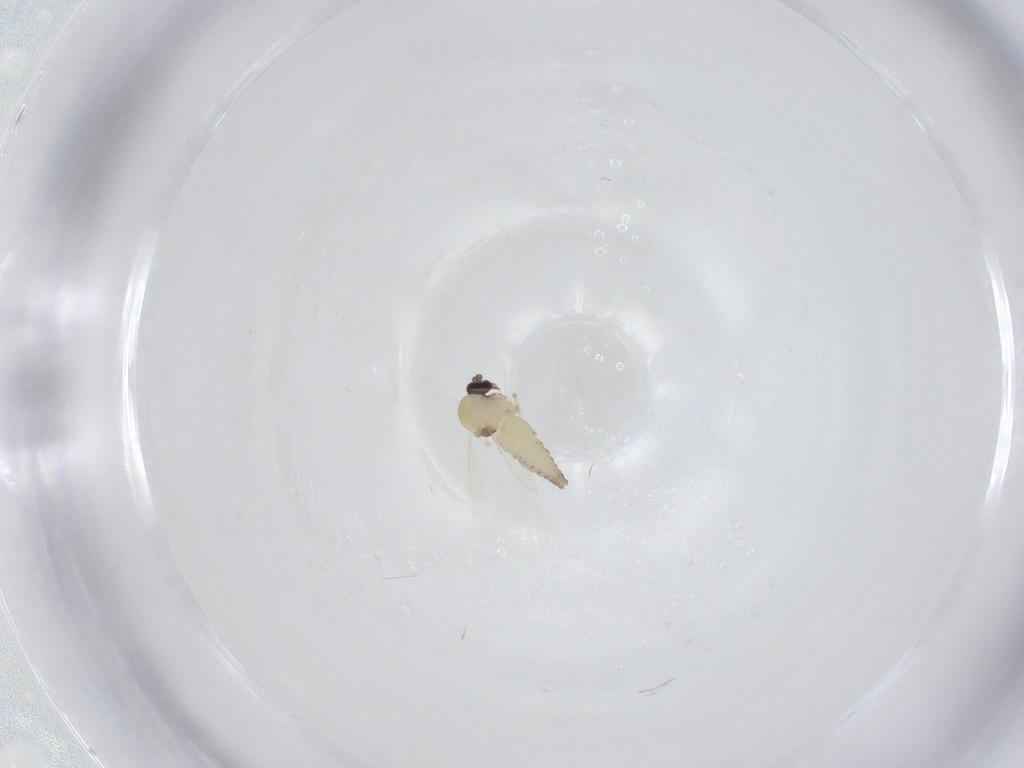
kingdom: Animalia
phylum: Arthropoda
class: Insecta
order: Diptera
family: Ceratopogonidae
